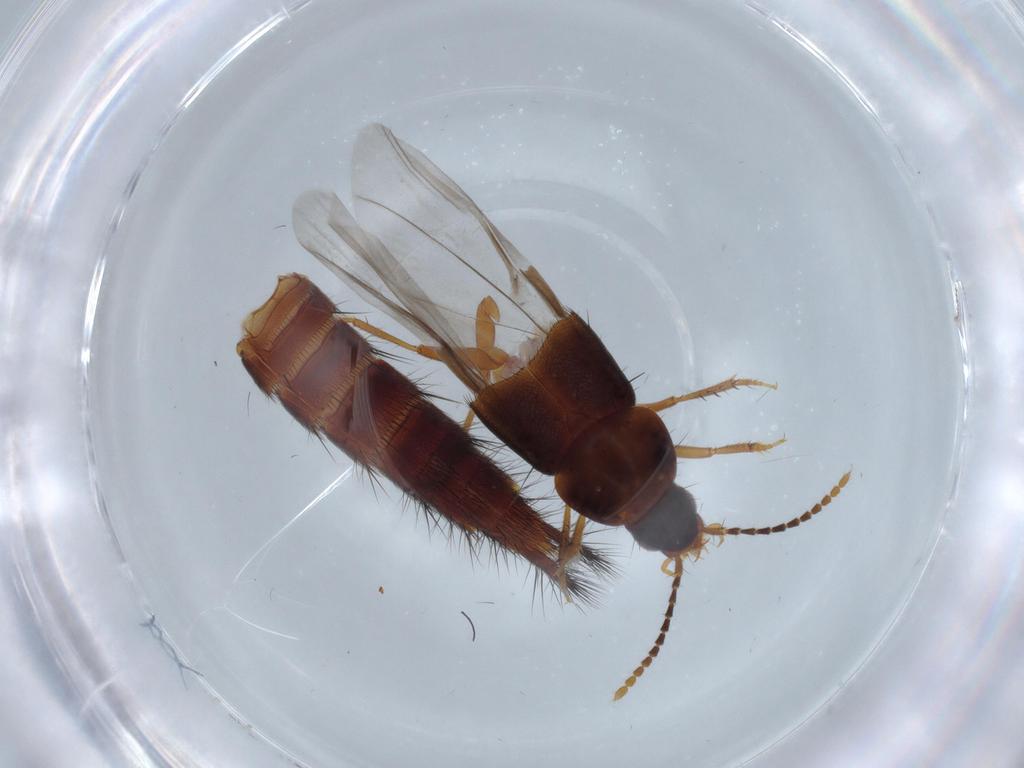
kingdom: Animalia
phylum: Arthropoda
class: Insecta
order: Coleoptera
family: Staphylinidae
